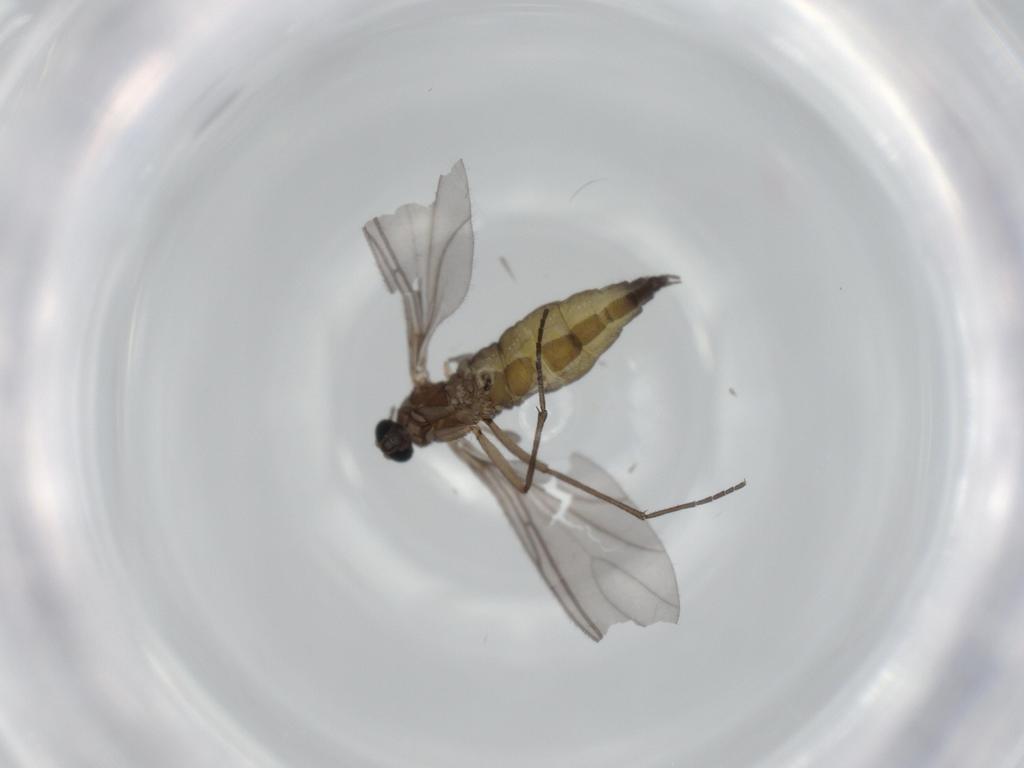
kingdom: Animalia
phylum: Arthropoda
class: Insecta
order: Diptera
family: Sciaridae
